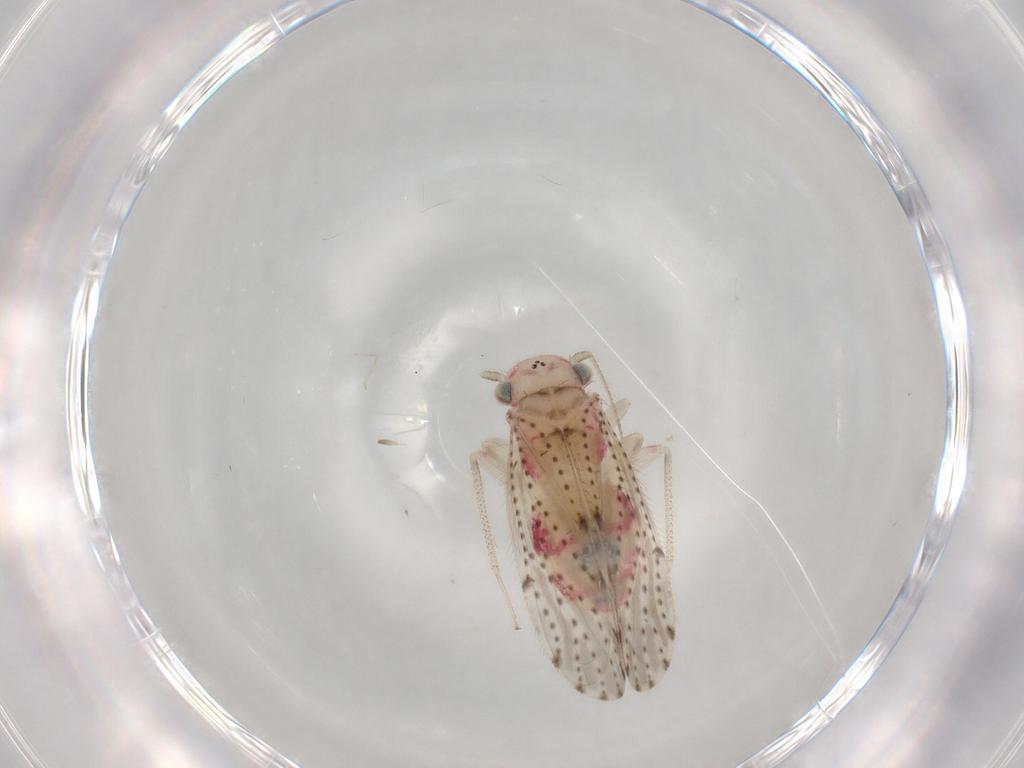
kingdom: Animalia
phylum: Arthropoda
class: Insecta
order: Psocodea
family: Hemipsocidae
